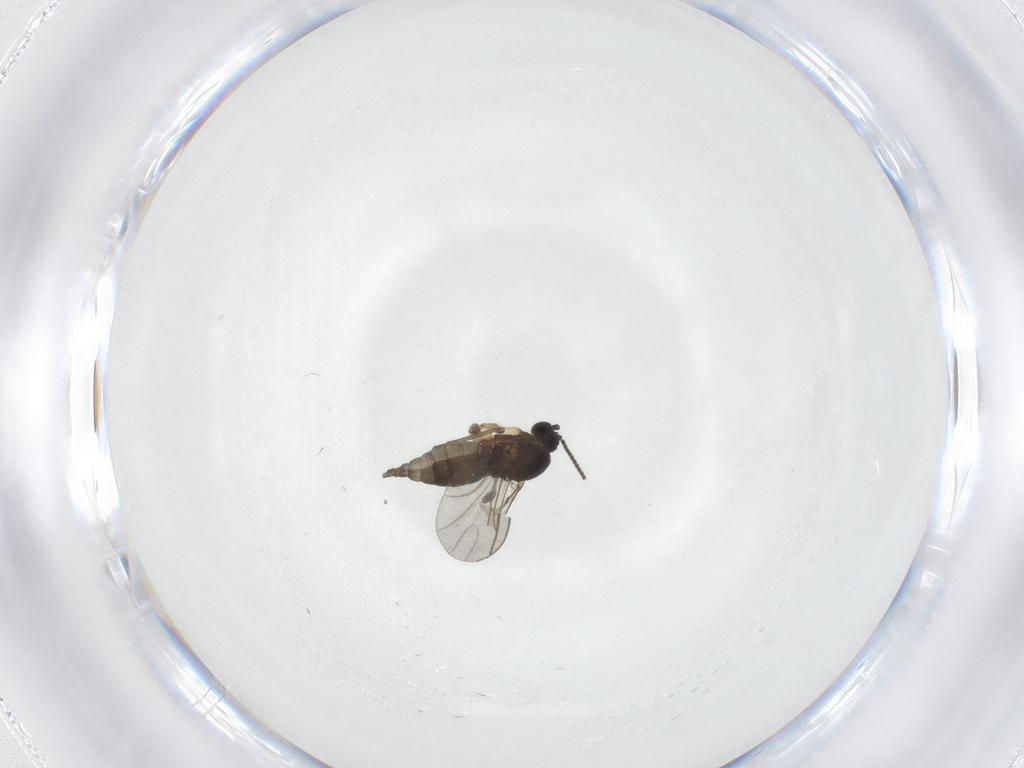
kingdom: Animalia
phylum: Arthropoda
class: Insecta
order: Diptera
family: Sciaridae
